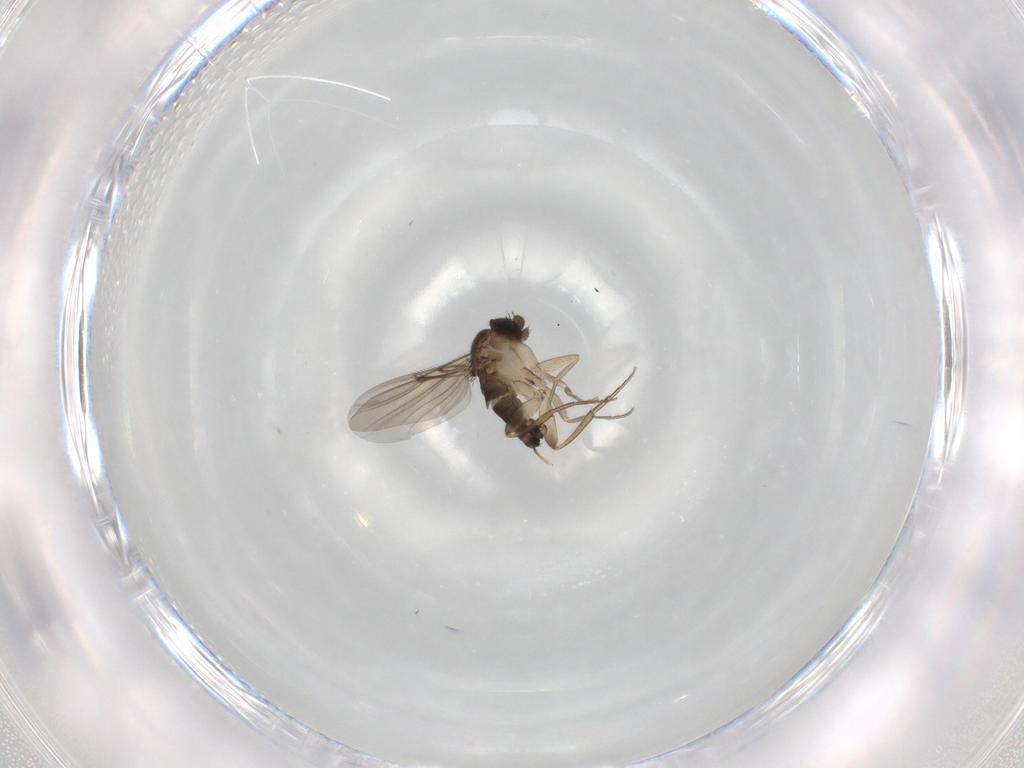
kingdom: Animalia
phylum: Arthropoda
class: Insecta
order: Diptera
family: Phoridae
